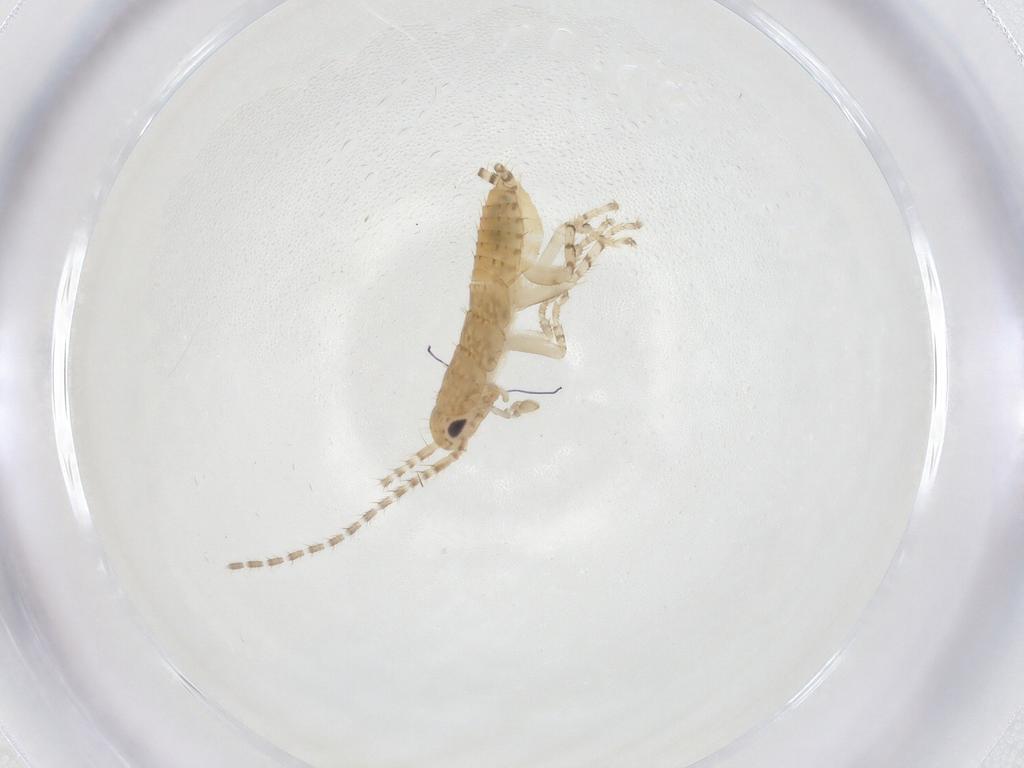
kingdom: Animalia
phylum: Arthropoda
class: Insecta
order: Blattodea
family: Ectobiidae
